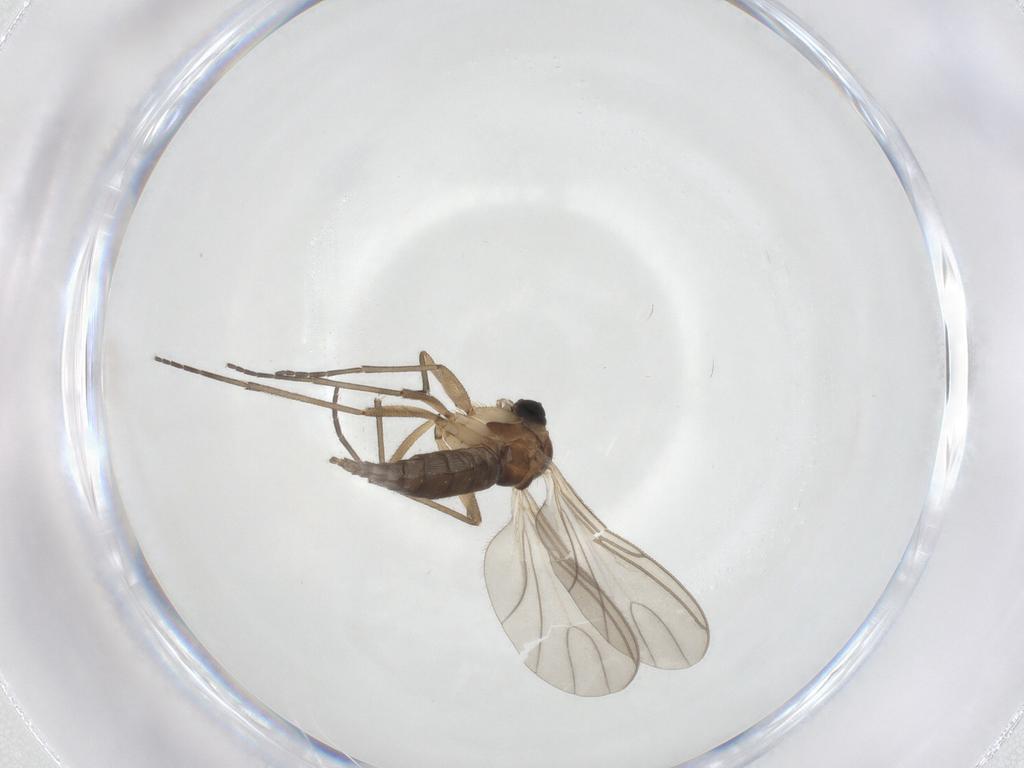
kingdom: Animalia
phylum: Arthropoda
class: Insecta
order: Diptera
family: Sciaridae
